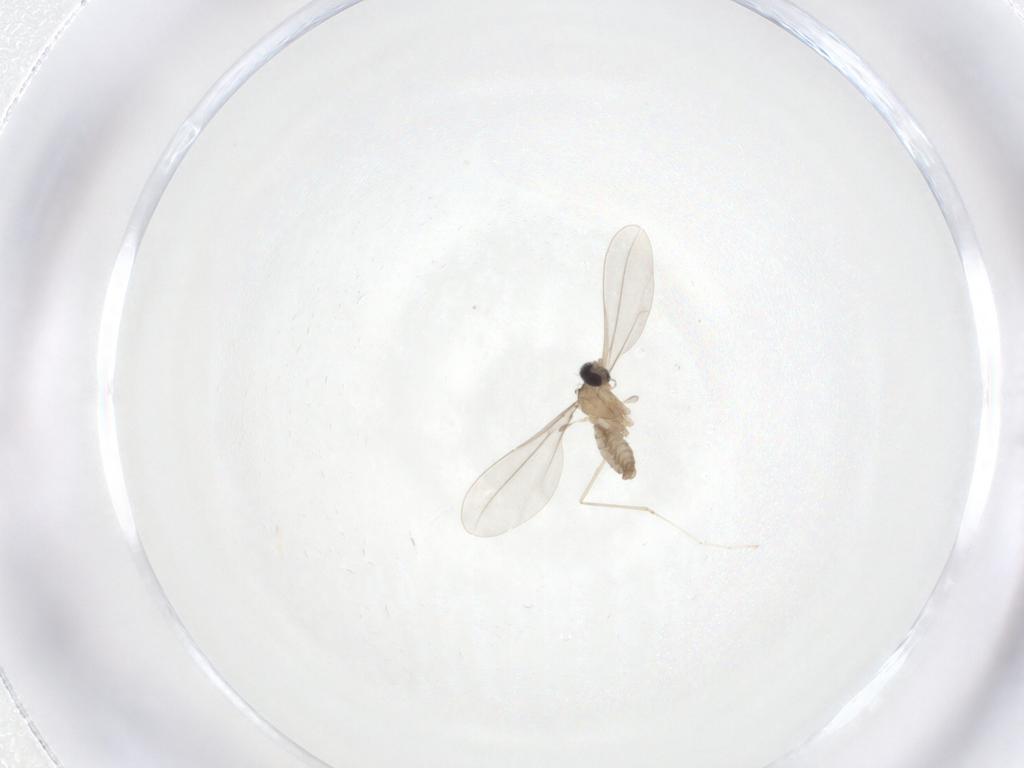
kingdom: Animalia
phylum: Arthropoda
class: Insecta
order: Diptera
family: Cecidomyiidae
